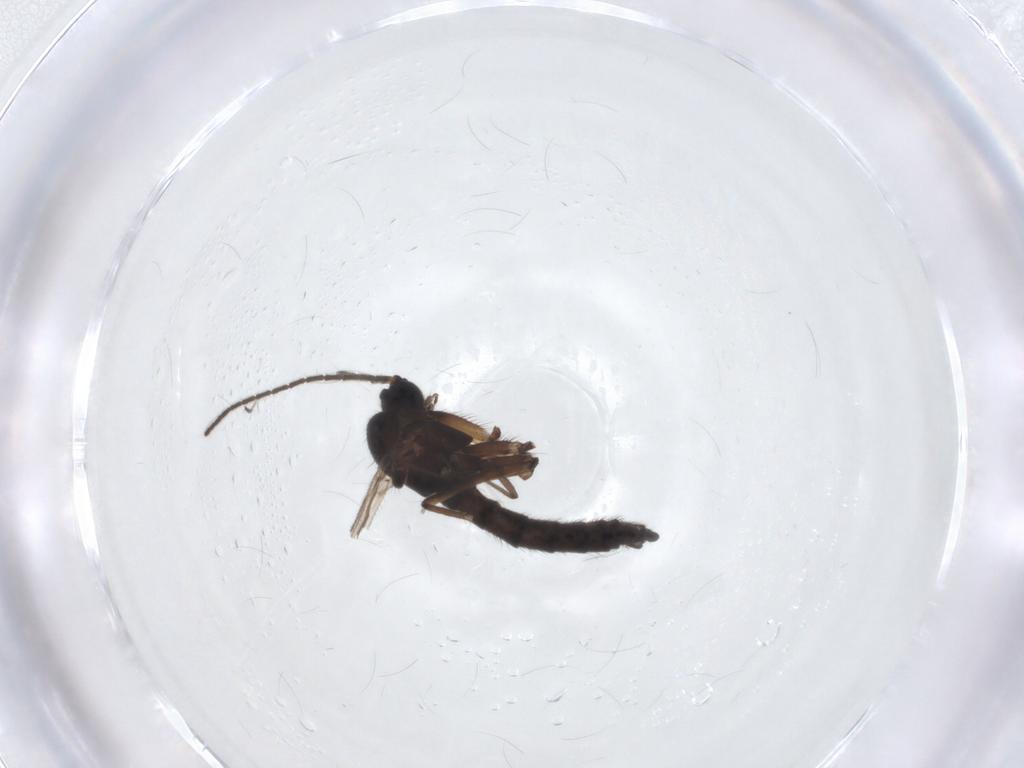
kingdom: Animalia
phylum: Arthropoda
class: Insecta
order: Diptera
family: Sciaridae
